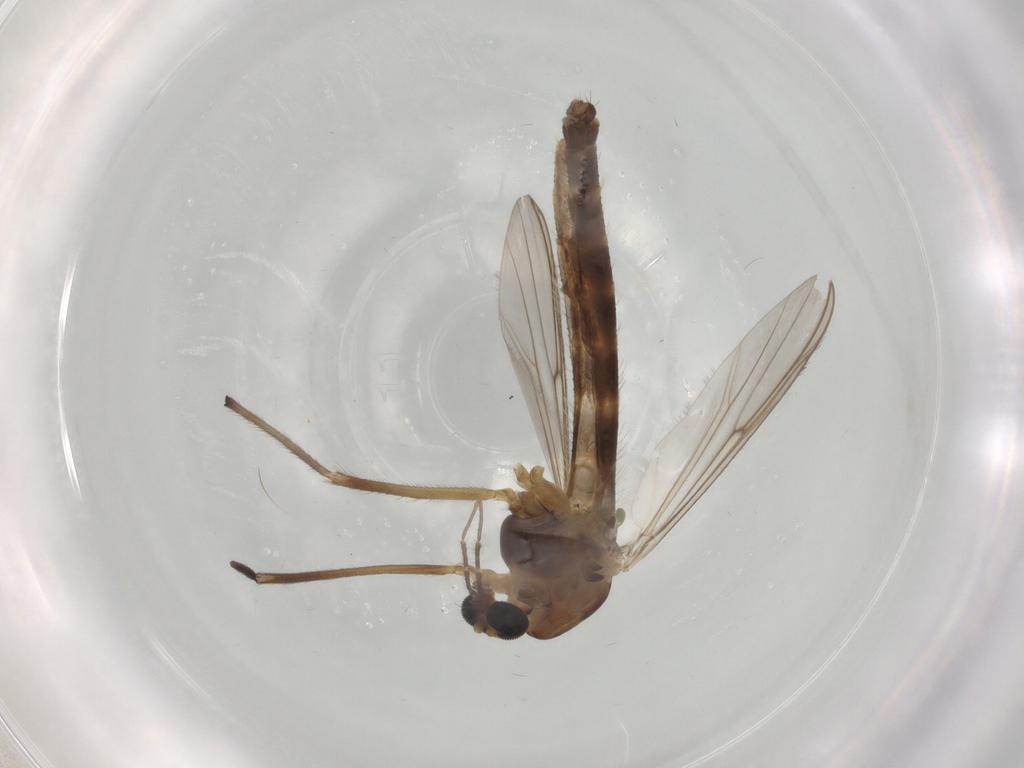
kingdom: Animalia
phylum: Arthropoda
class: Insecta
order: Diptera
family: Chironomidae
